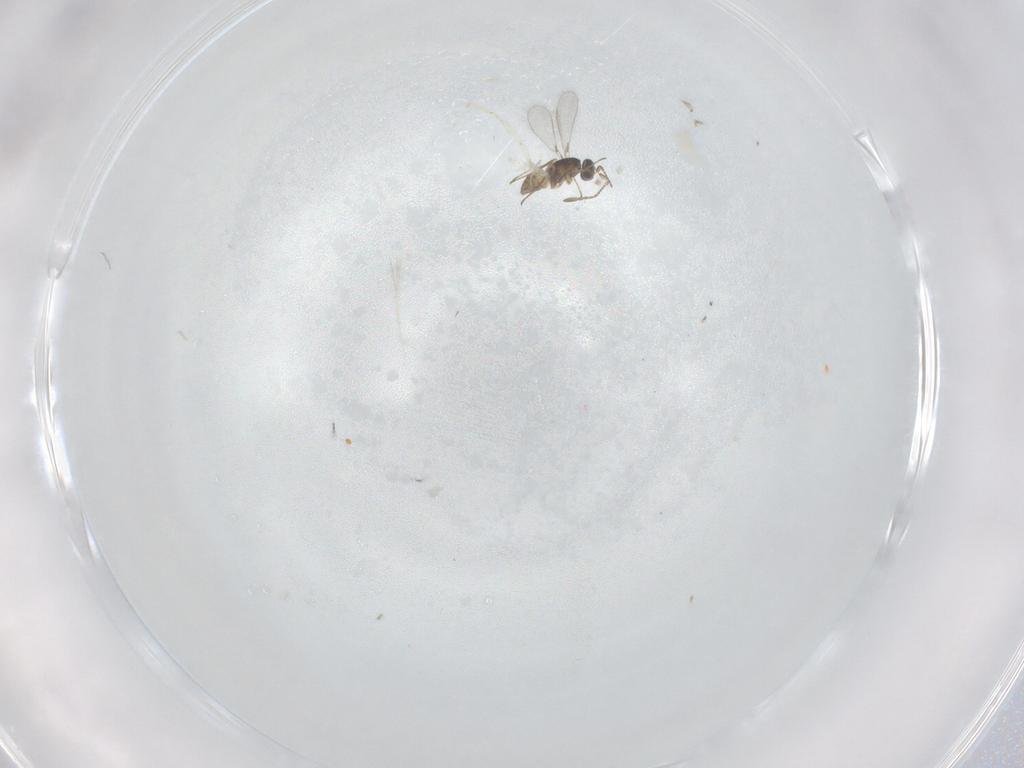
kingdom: Animalia
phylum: Arthropoda
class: Insecta
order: Hymenoptera
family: Mymaridae
